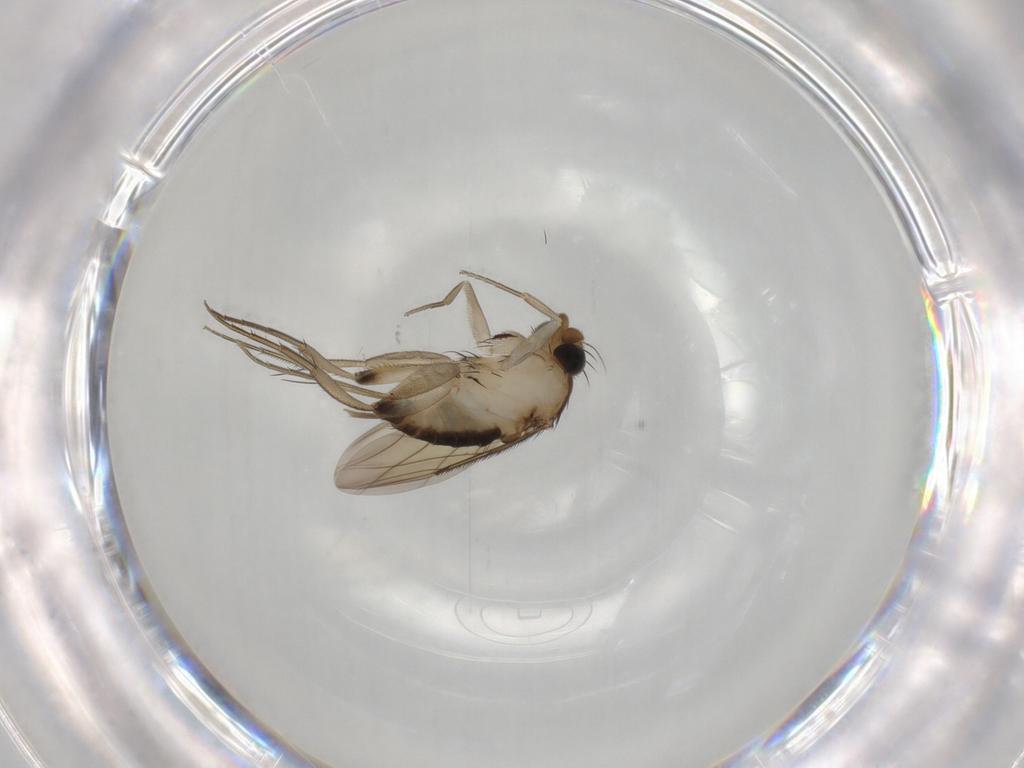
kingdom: Animalia
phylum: Arthropoda
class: Insecta
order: Diptera
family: Phoridae
